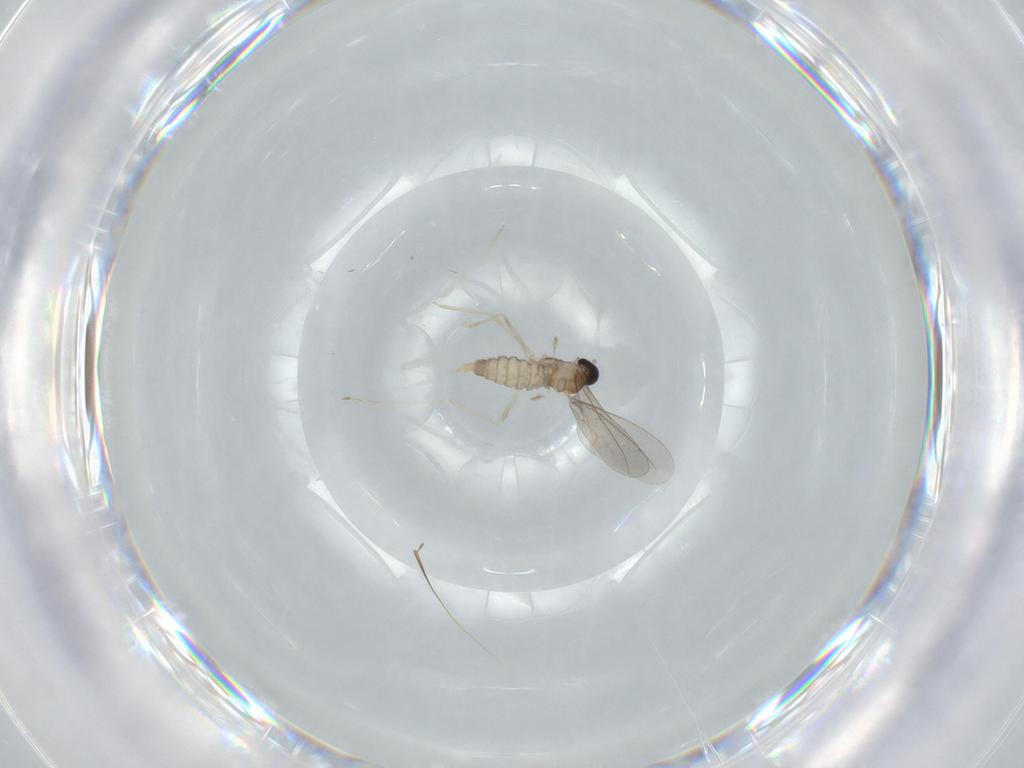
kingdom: Animalia
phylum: Arthropoda
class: Insecta
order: Diptera
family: Cecidomyiidae
